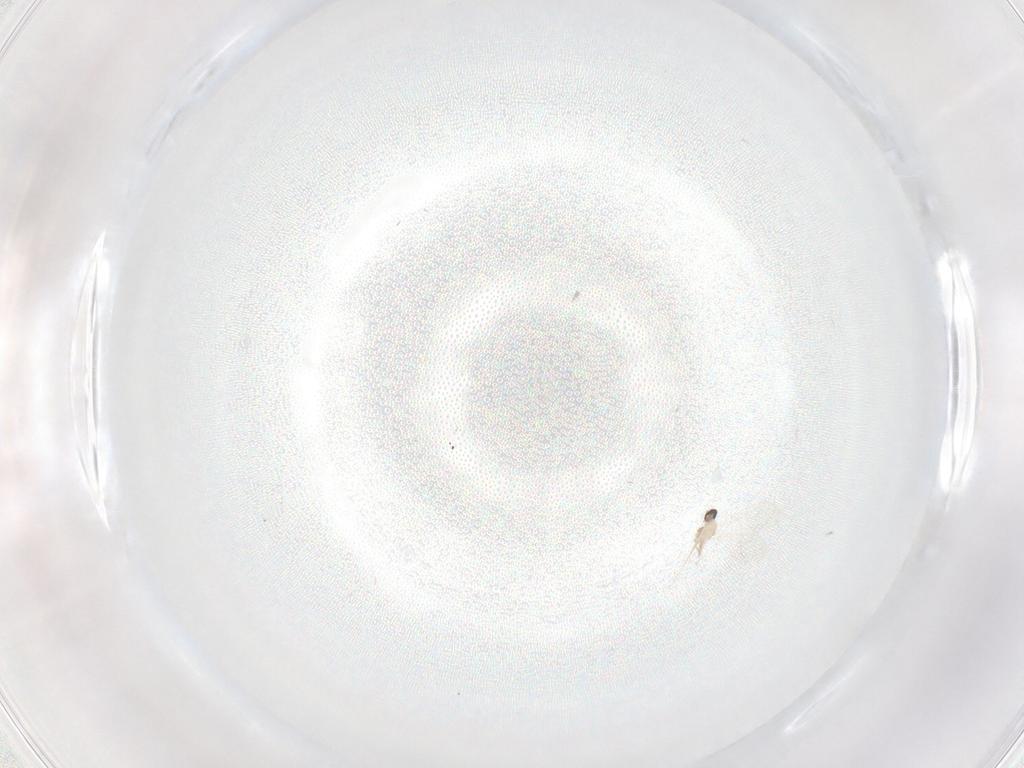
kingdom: Animalia
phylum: Arthropoda
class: Insecta
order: Diptera
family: Cecidomyiidae
